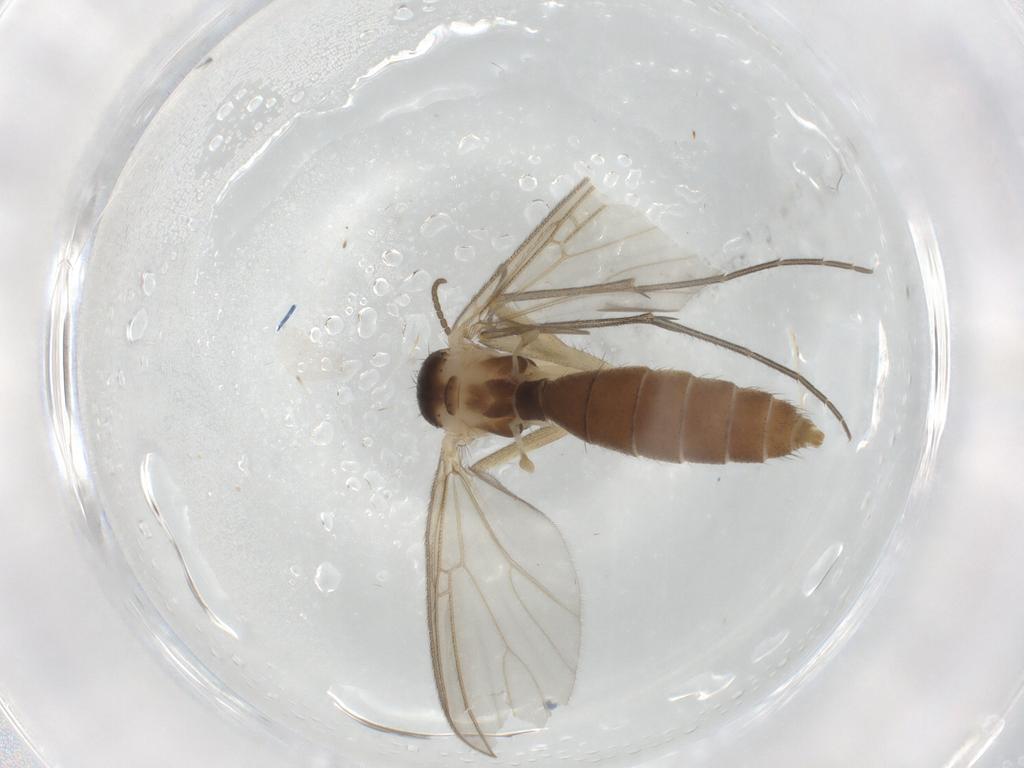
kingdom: Animalia
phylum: Arthropoda
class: Insecta
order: Diptera
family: Mycetophilidae
